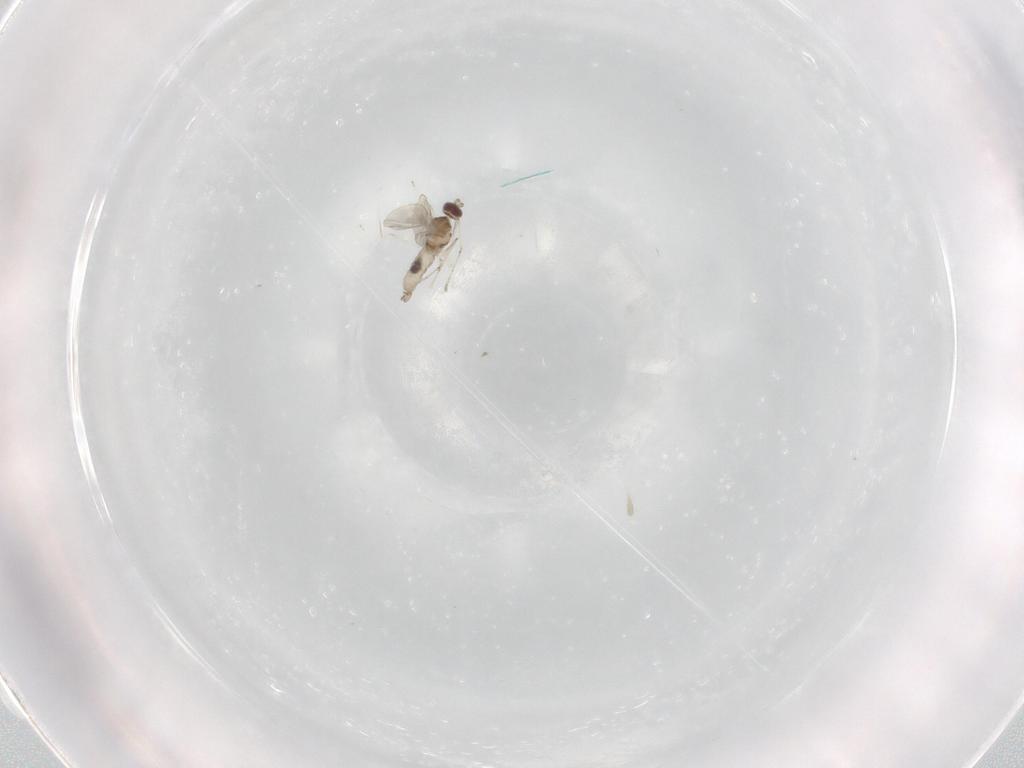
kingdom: Animalia
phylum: Arthropoda
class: Insecta
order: Diptera
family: Cecidomyiidae
